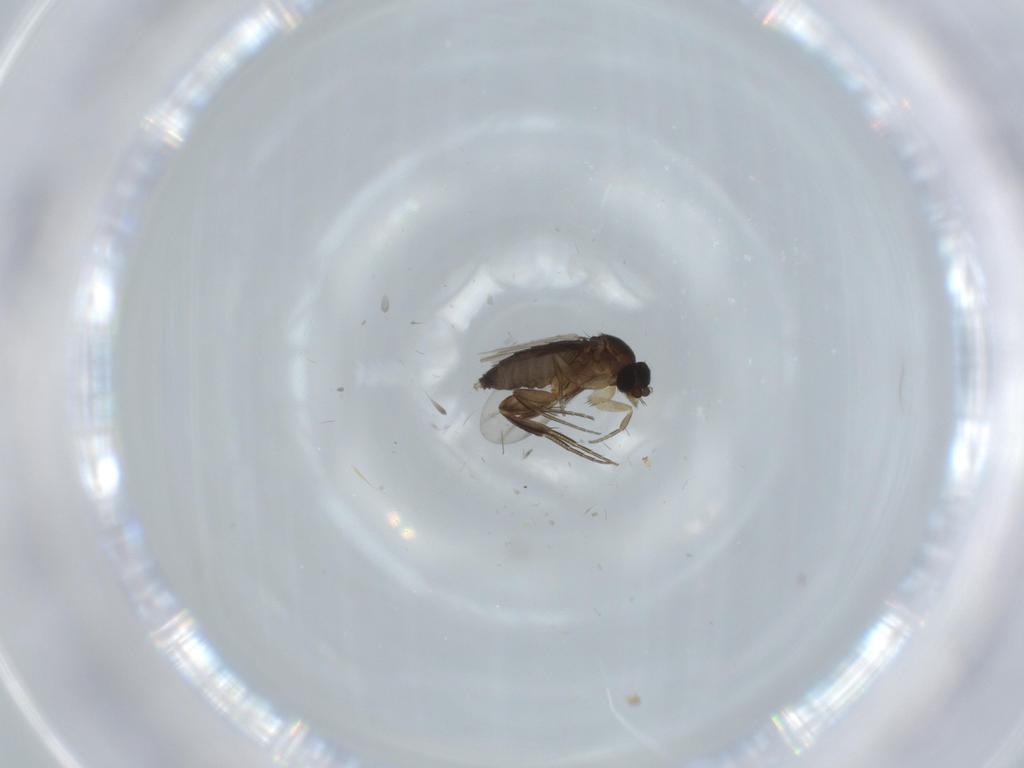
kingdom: Animalia
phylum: Arthropoda
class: Insecta
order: Diptera
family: Phoridae
